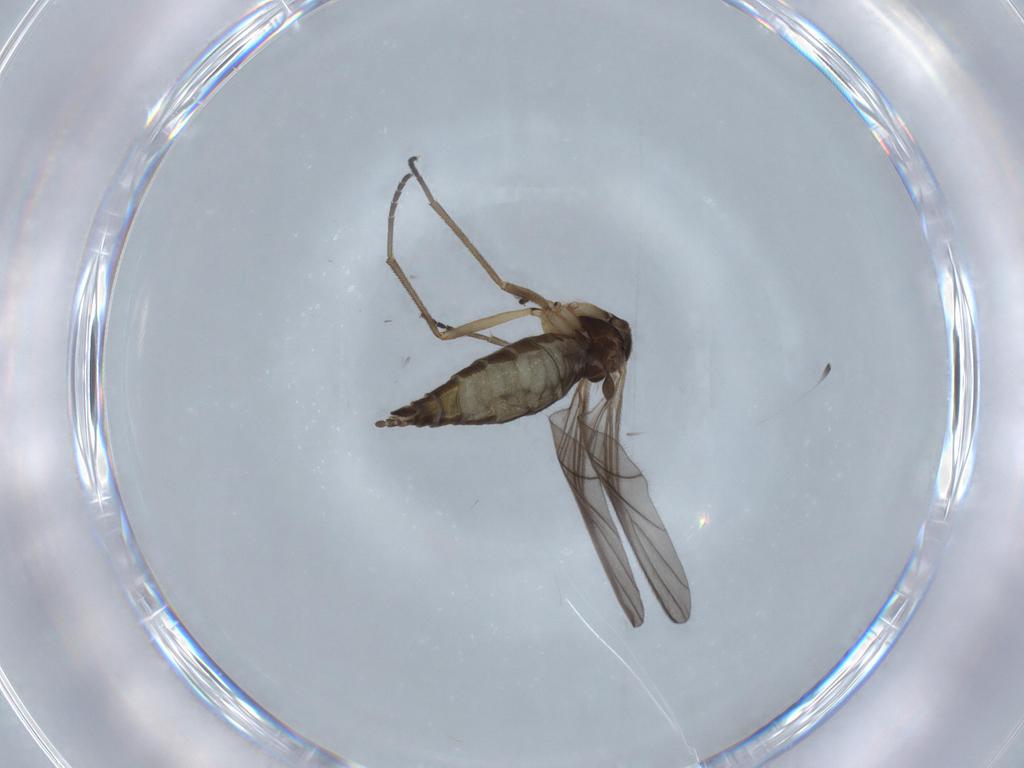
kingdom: Animalia
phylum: Arthropoda
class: Insecta
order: Diptera
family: Sciaridae
